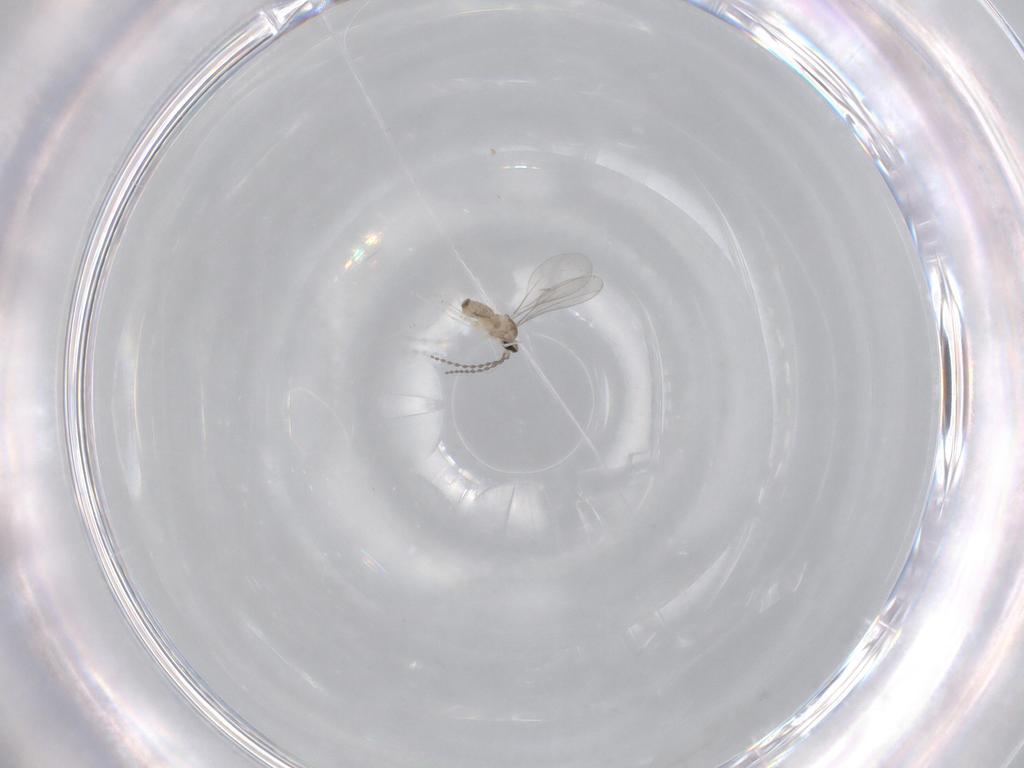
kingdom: Animalia
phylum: Arthropoda
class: Insecta
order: Diptera
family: Cecidomyiidae
